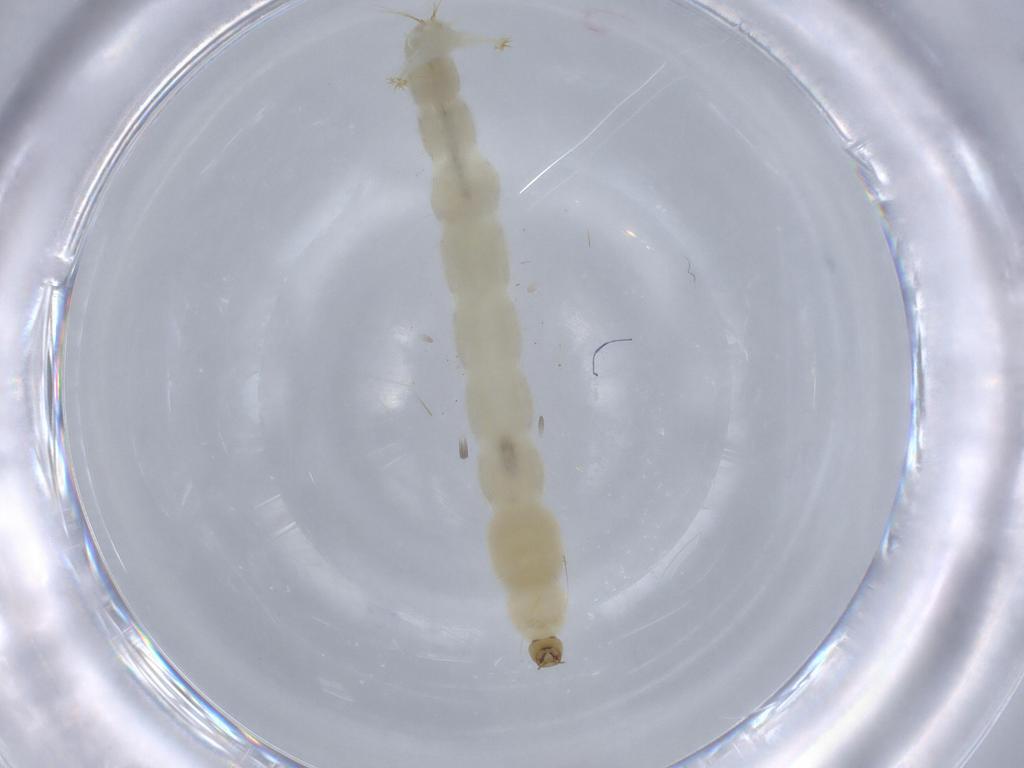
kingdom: Animalia
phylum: Arthropoda
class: Insecta
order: Diptera
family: Chironomidae
